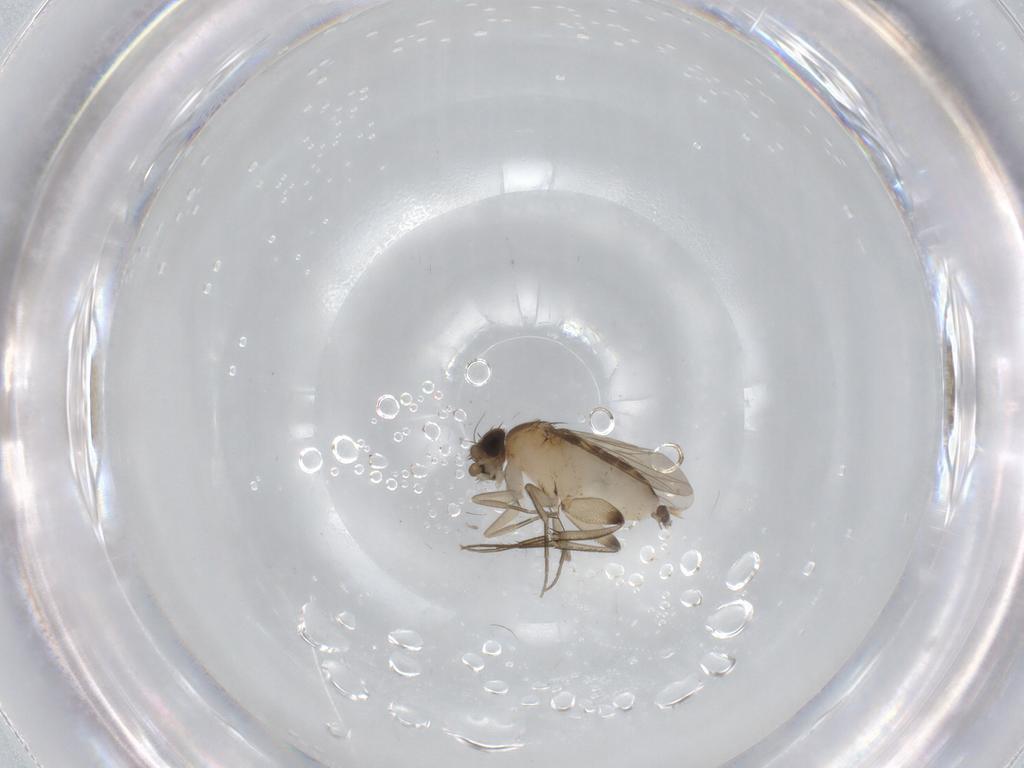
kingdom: Animalia
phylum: Arthropoda
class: Insecta
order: Diptera
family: Phoridae
